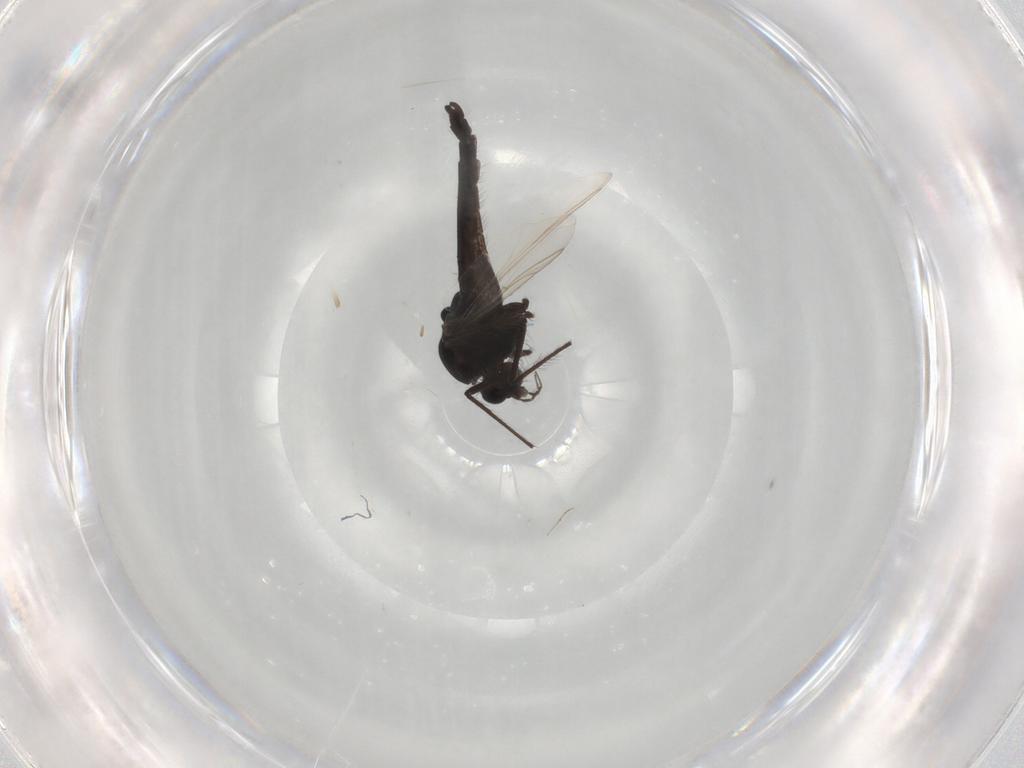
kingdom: Animalia
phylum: Arthropoda
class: Insecta
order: Diptera
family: Chironomidae
